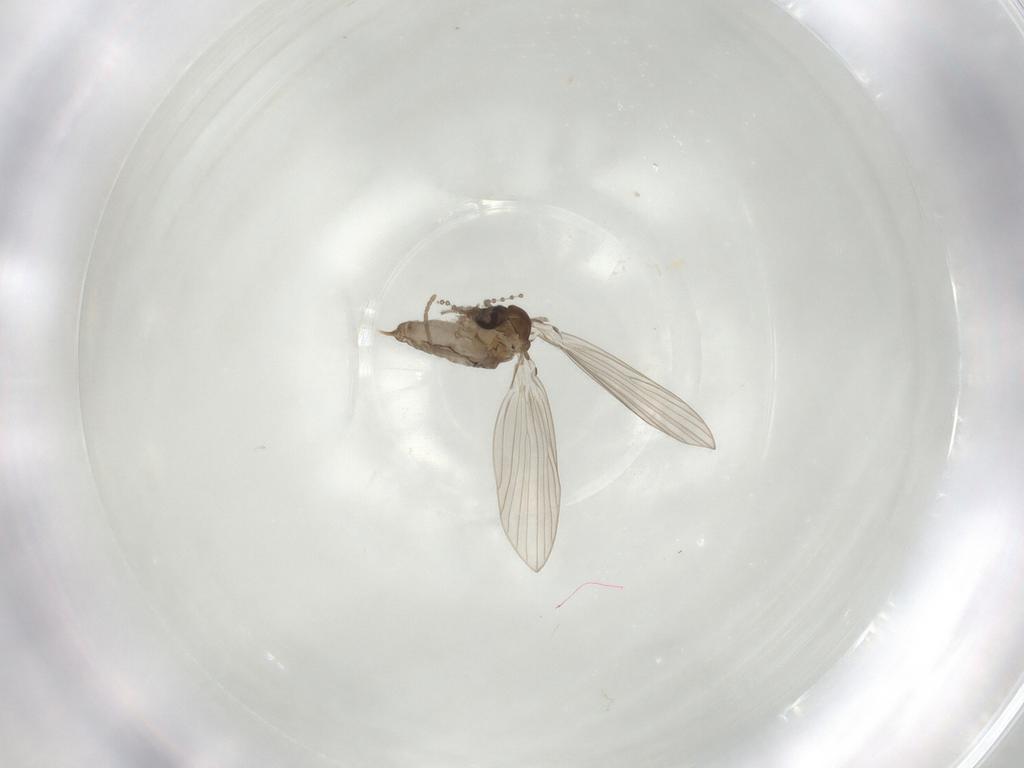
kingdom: Animalia
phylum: Arthropoda
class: Insecta
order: Diptera
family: Psychodidae
